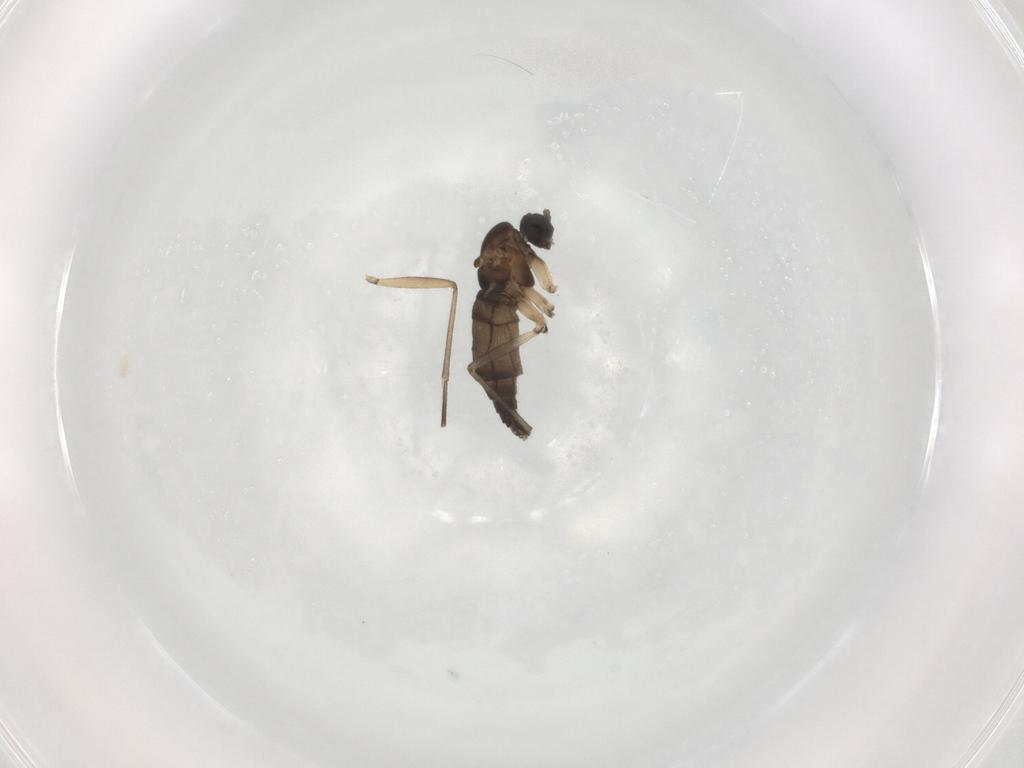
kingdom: Animalia
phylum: Arthropoda
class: Insecta
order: Diptera
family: Sciaridae
